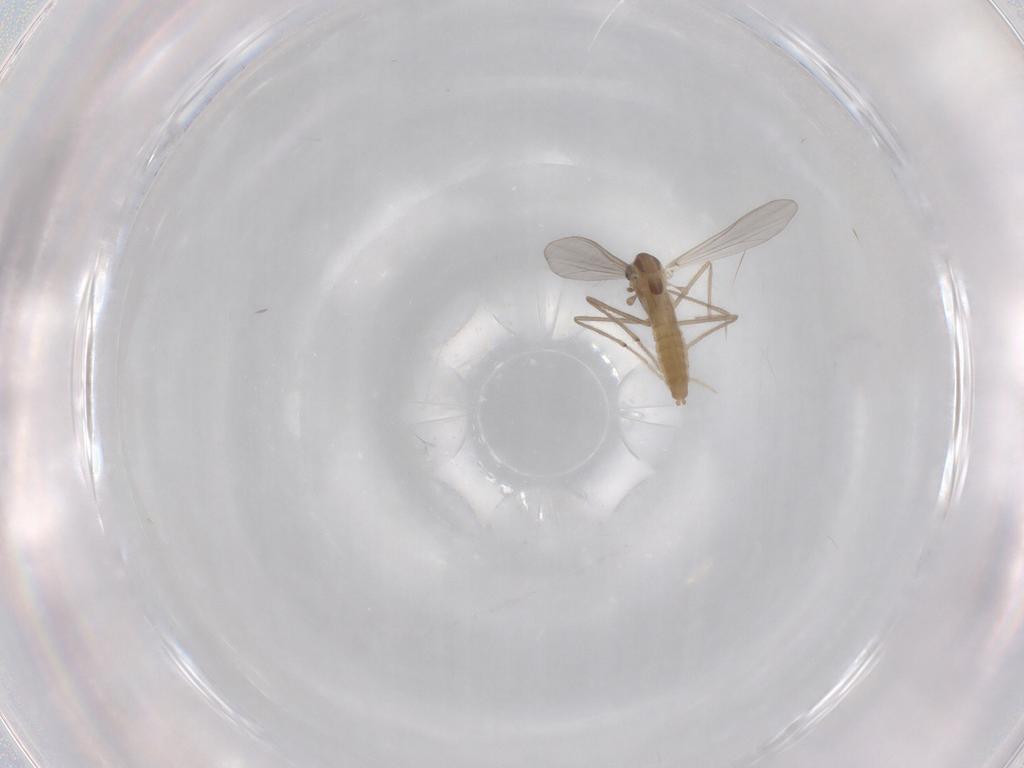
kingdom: Animalia
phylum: Arthropoda
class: Insecta
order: Diptera
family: Chironomidae
